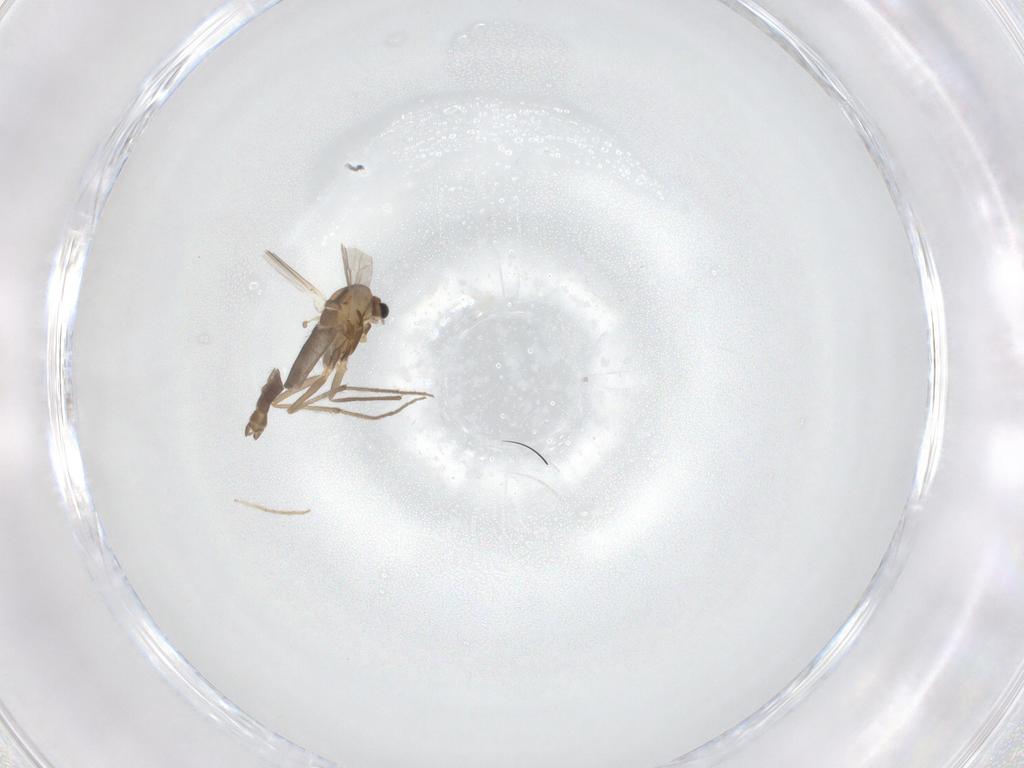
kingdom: Animalia
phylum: Arthropoda
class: Insecta
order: Diptera
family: Chironomidae
